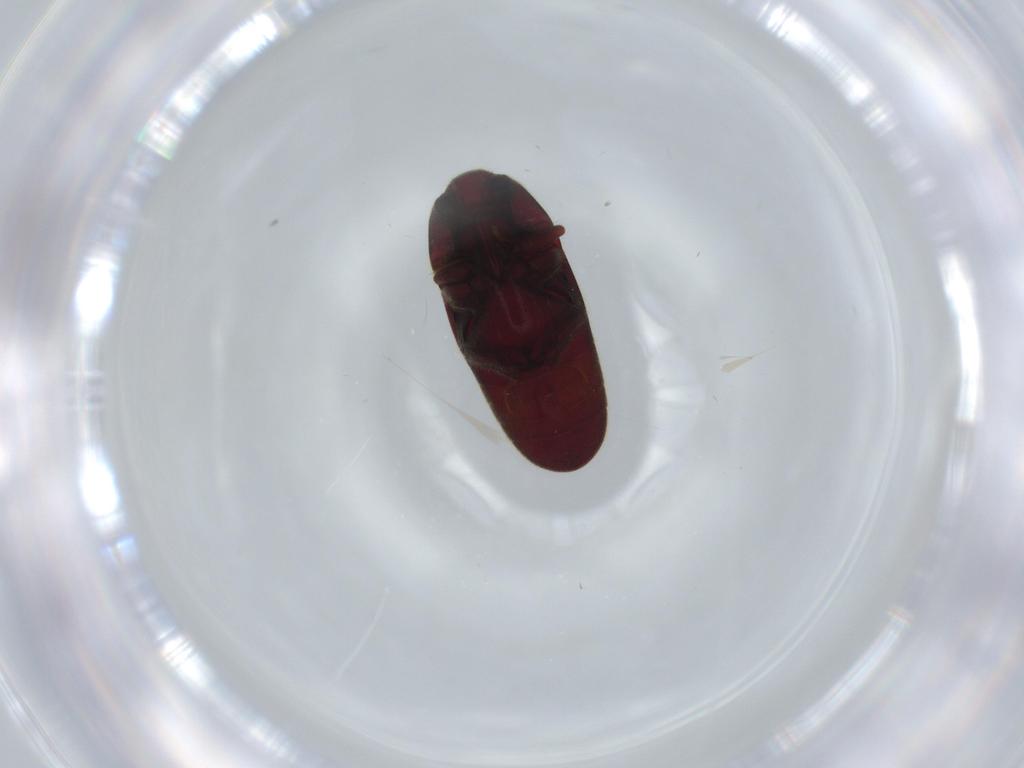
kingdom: Animalia
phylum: Arthropoda
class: Insecta
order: Coleoptera
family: Throscidae
